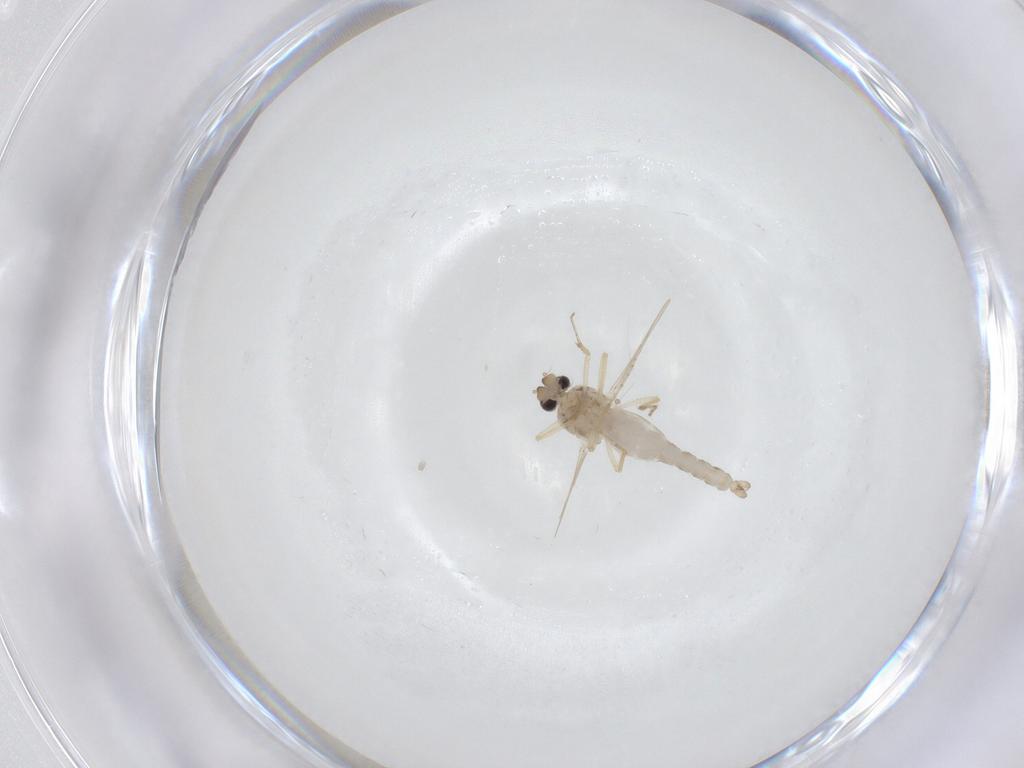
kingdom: Animalia
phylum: Arthropoda
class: Insecta
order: Diptera
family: Ceratopogonidae
